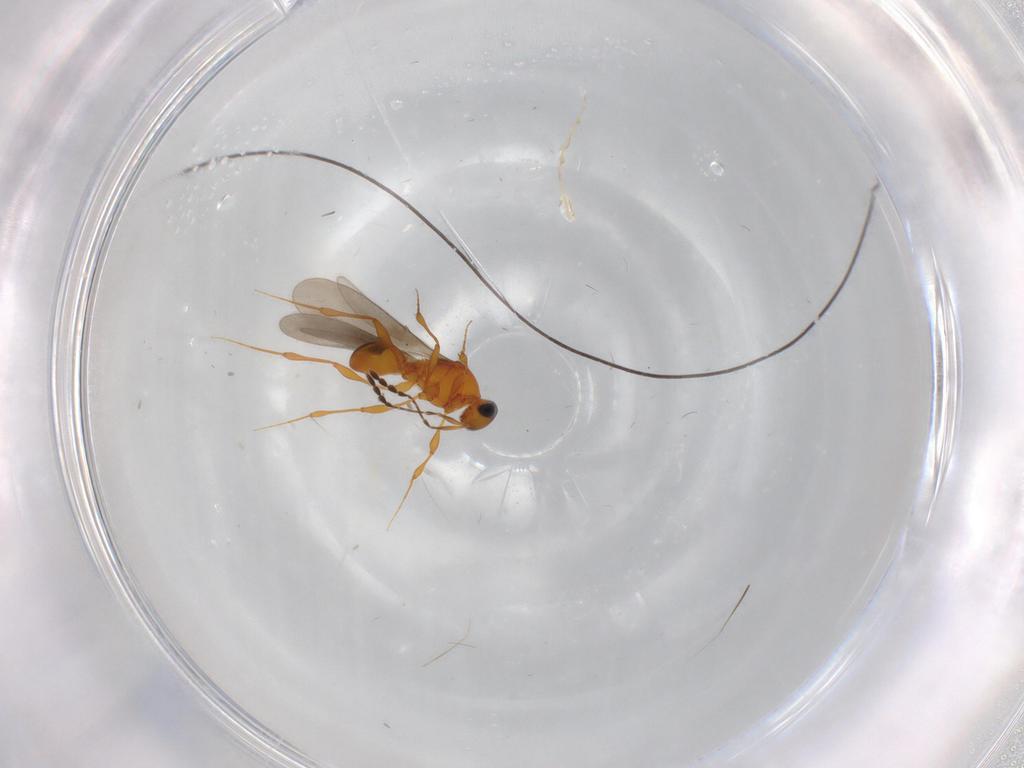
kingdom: Animalia
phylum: Arthropoda
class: Insecta
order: Hymenoptera
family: Platygastridae
